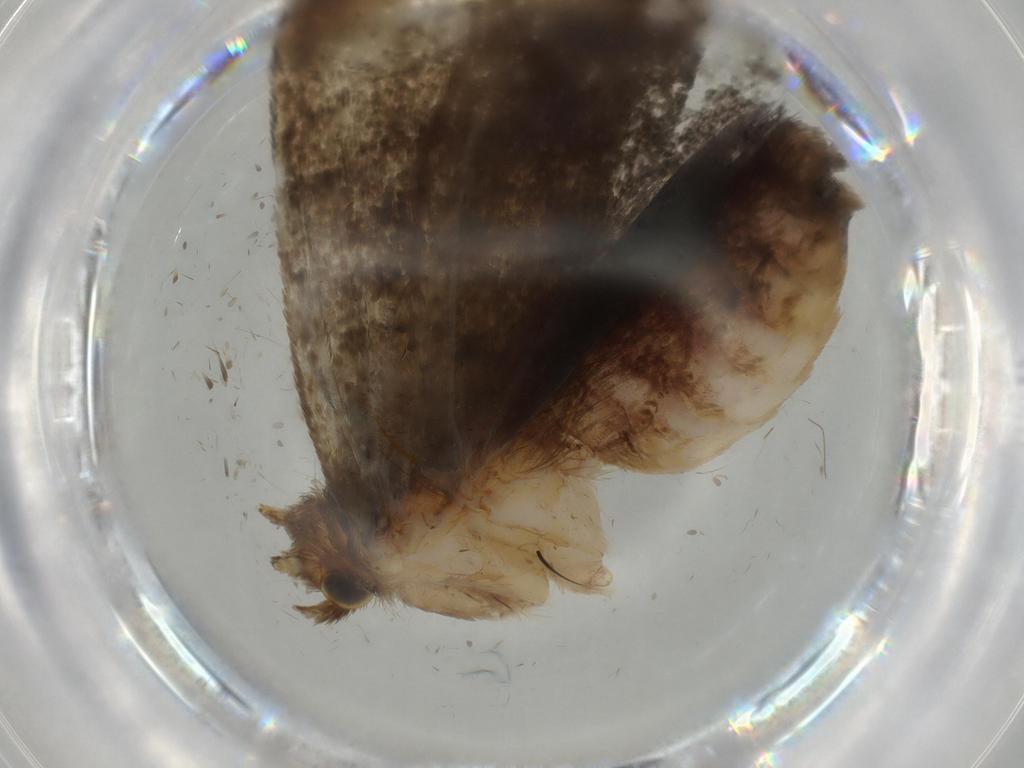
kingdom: Animalia
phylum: Arthropoda
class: Insecta
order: Diptera
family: Cecidomyiidae
